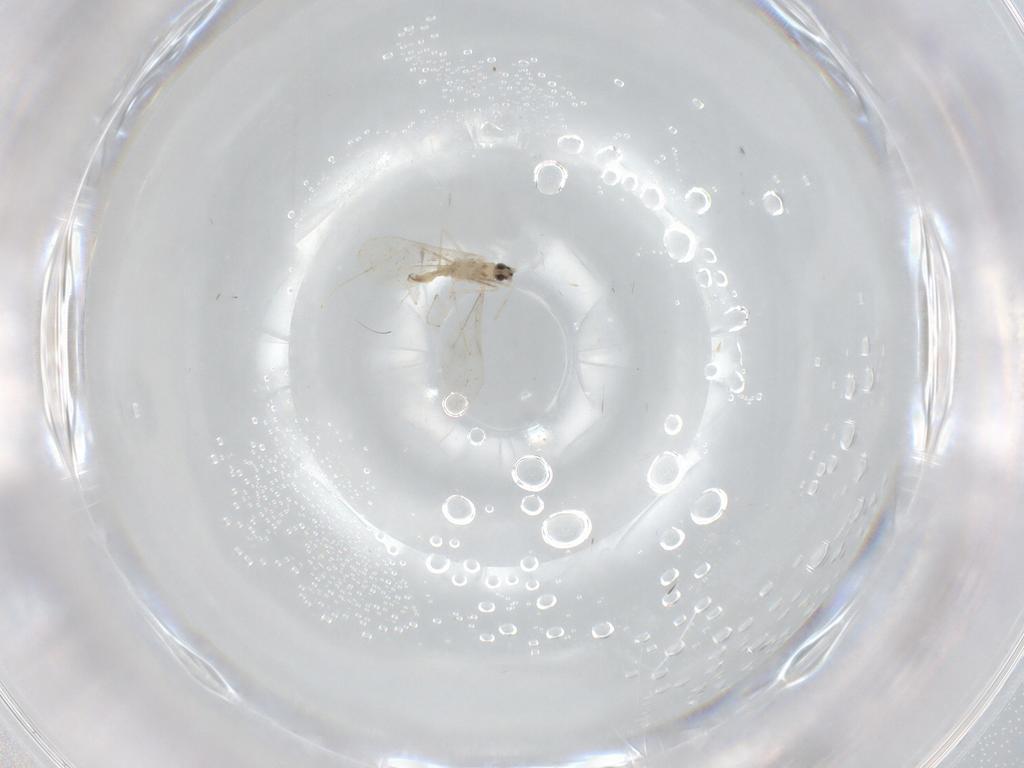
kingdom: Animalia
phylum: Arthropoda
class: Insecta
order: Diptera
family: Cecidomyiidae
